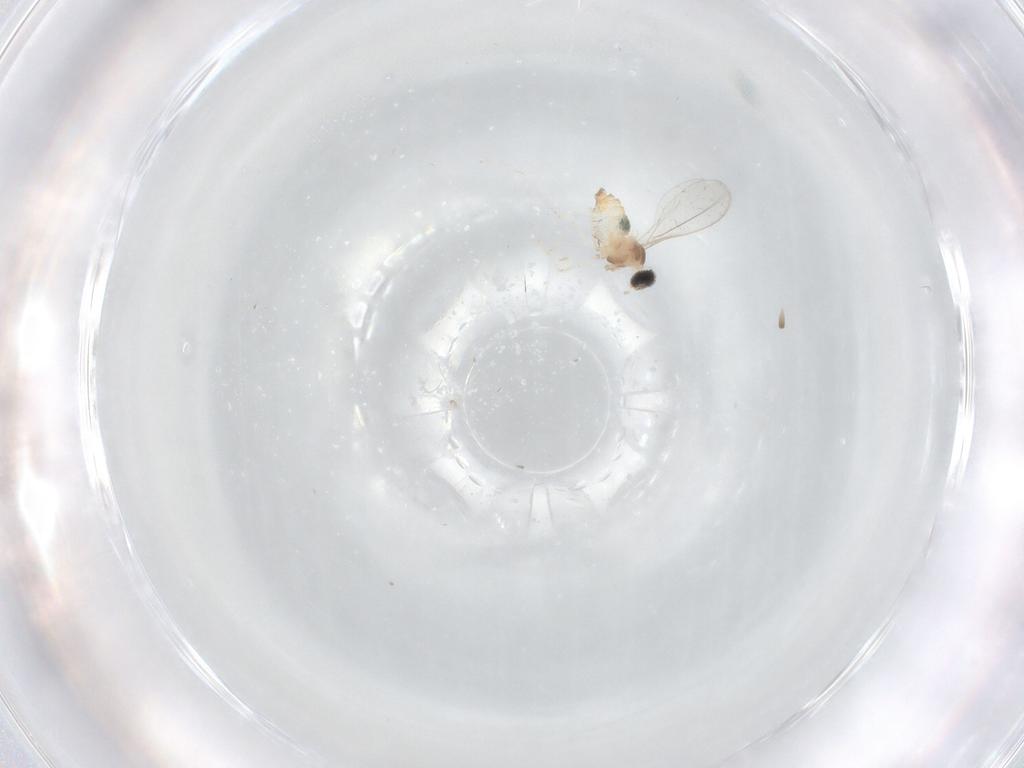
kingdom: Animalia
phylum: Arthropoda
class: Insecta
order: Diptera
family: Cecidomyiidae
